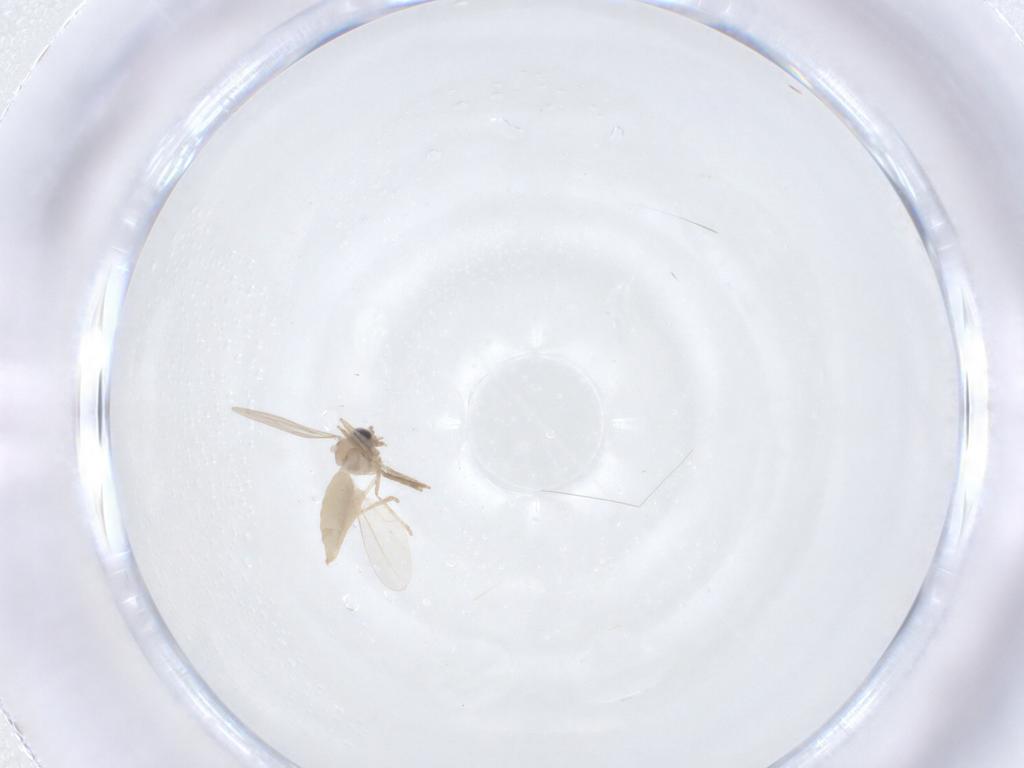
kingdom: Animalia
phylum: Arthropoda
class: Insecta
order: Diptera
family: Cecidomyiidae
